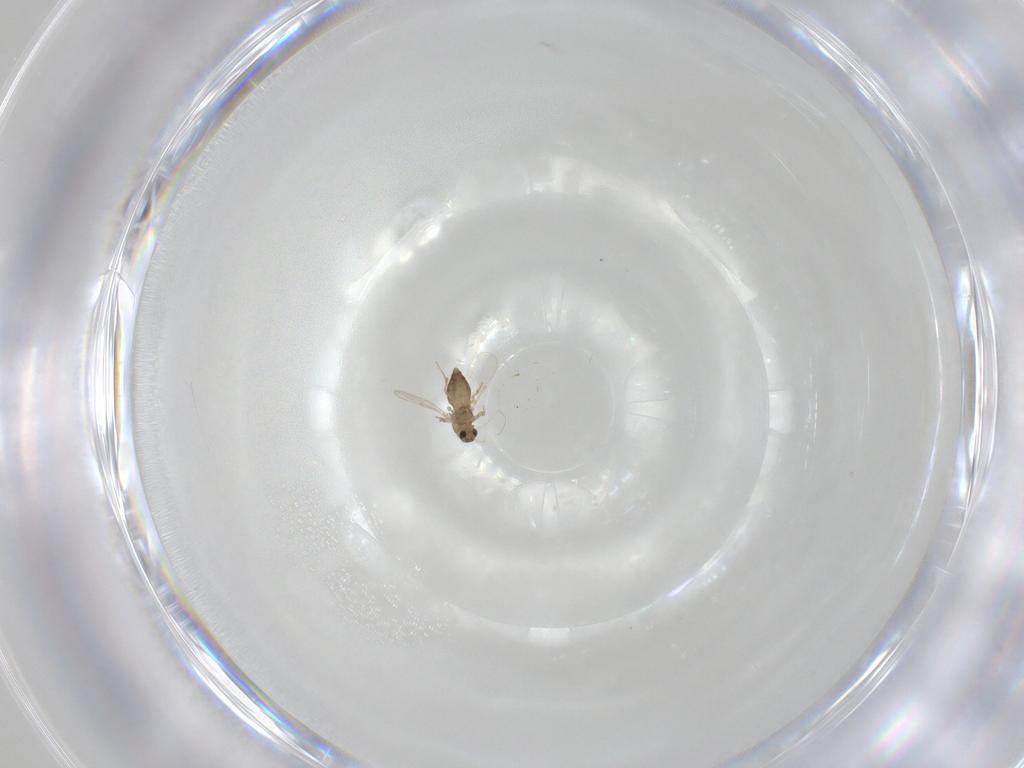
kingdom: Animalia
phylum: Arthropoda
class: Insecta
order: Diptera
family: Chironomidae
